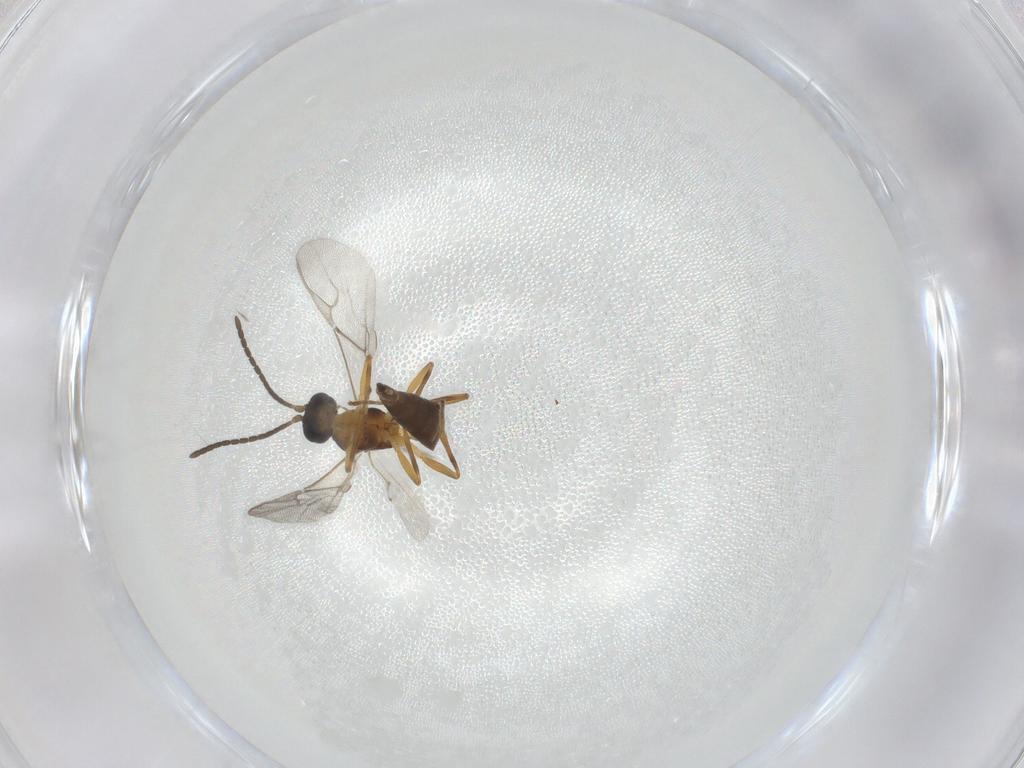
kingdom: Animalia
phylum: Arthropoda
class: Insecta
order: Hymenoptera
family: Braconidae
